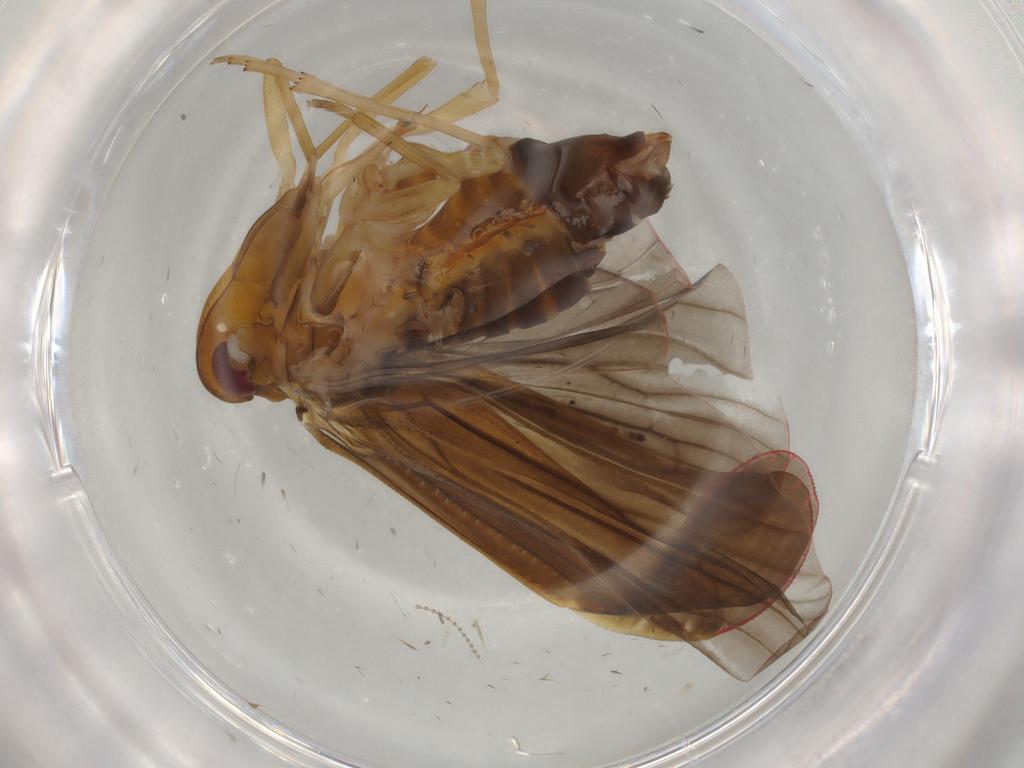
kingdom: Animalia
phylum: Arthropoda
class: Insecta
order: Hemiptera
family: Derbidae
